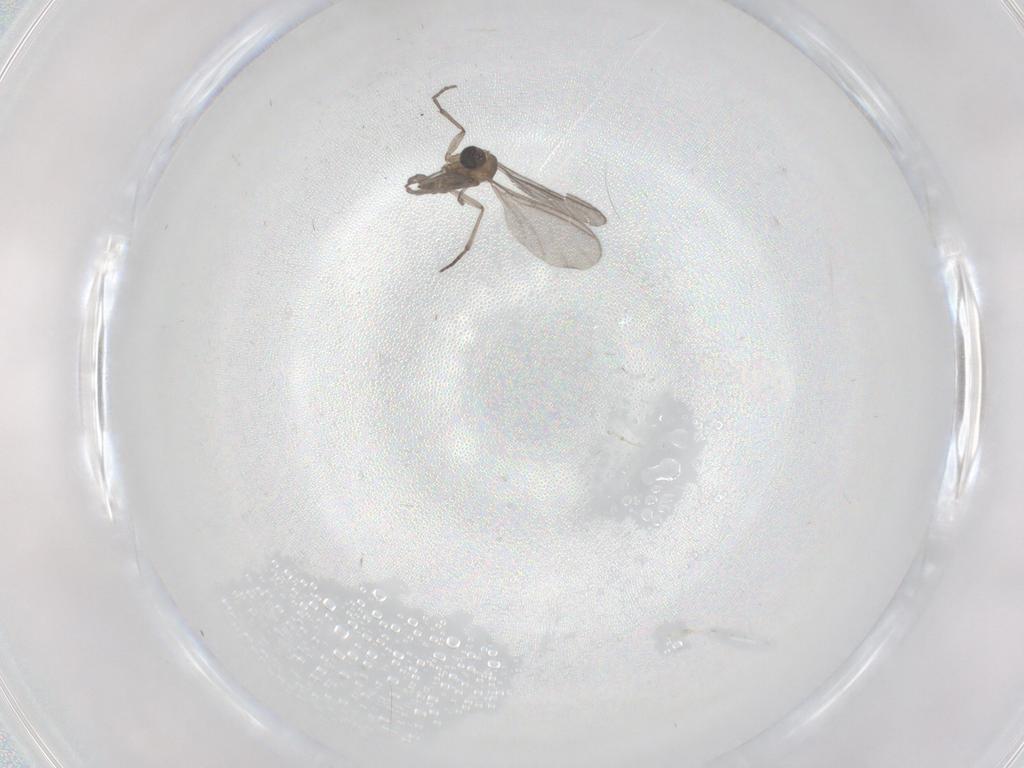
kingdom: Animalia
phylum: Arthropoda
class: Insecta
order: Diptera
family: Sciaridae
